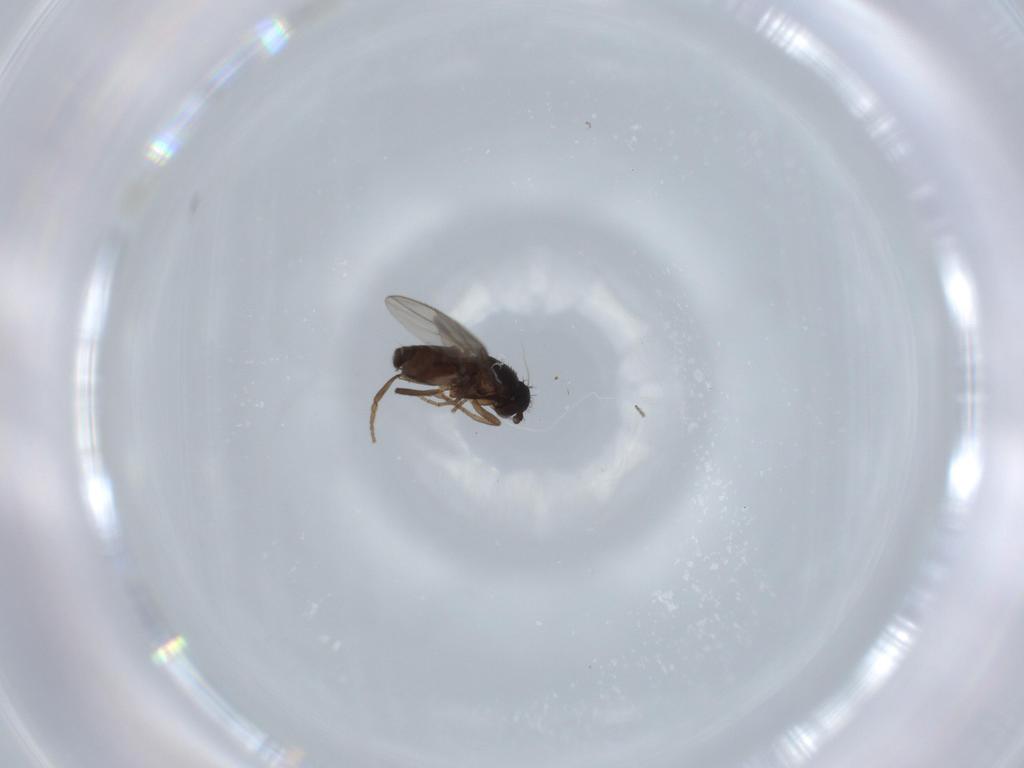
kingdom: Animalia
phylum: Arthropoda
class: Insecta
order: Diptera
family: Sphaeroceridae
